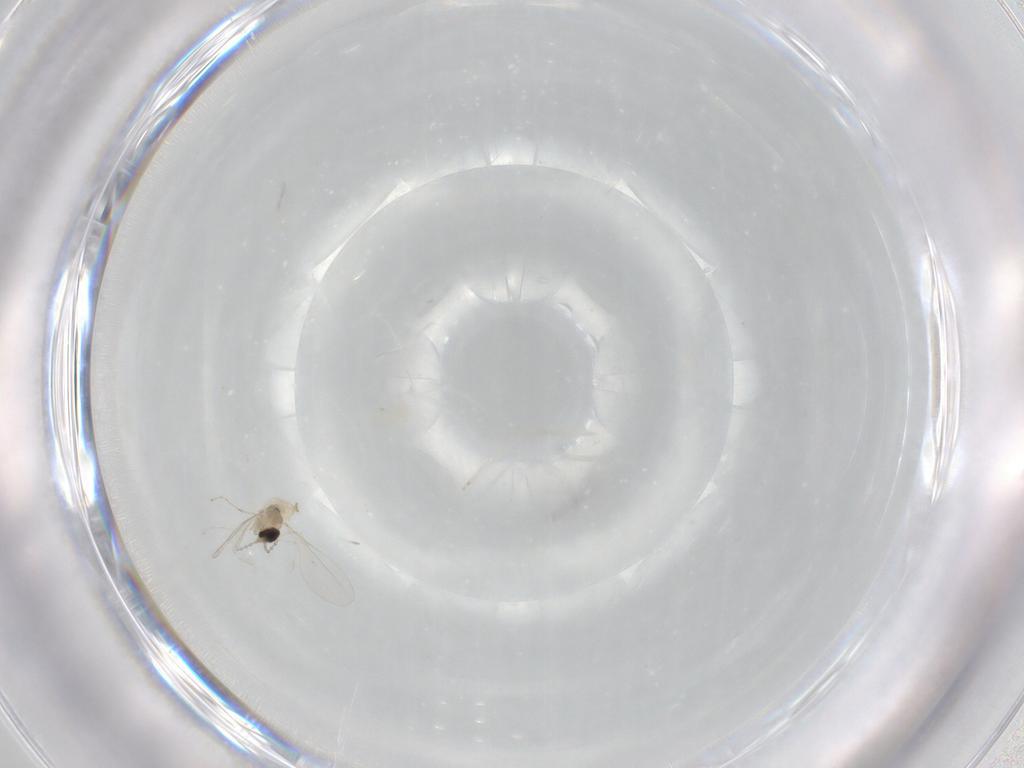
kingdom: Animalia
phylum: Arthropoda
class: Insecta
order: Diptera
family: Cecidomyiidae
